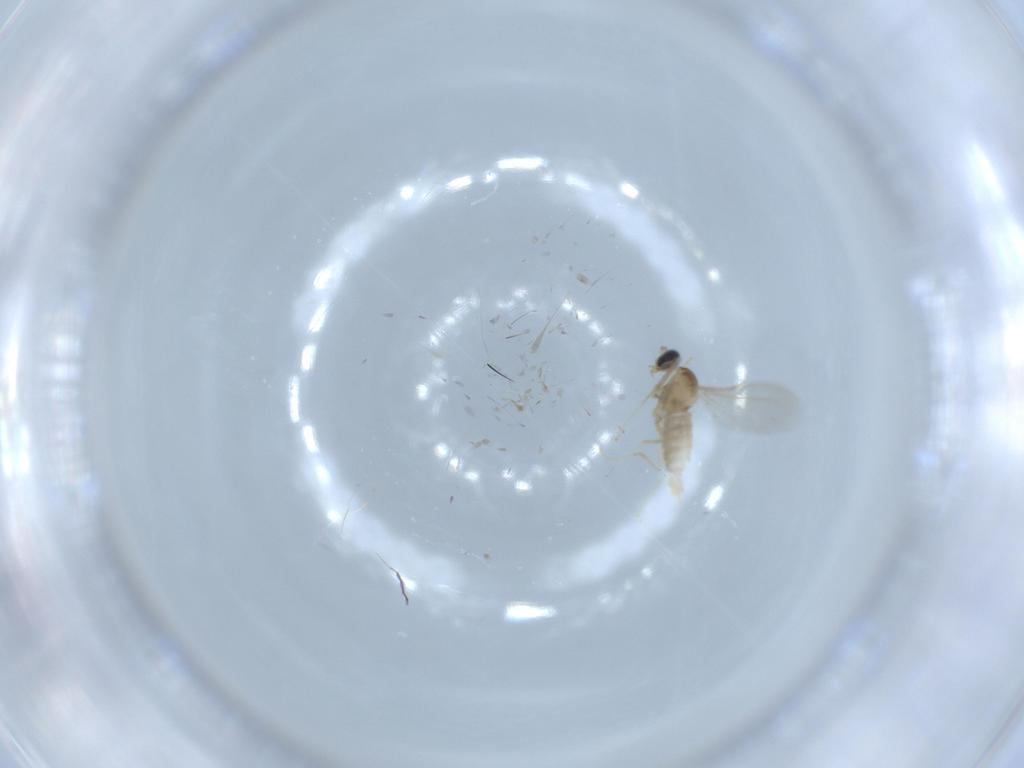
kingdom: Animalia
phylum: Arthropoda
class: Insecta
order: Diptera
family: Cecidomyiidae
